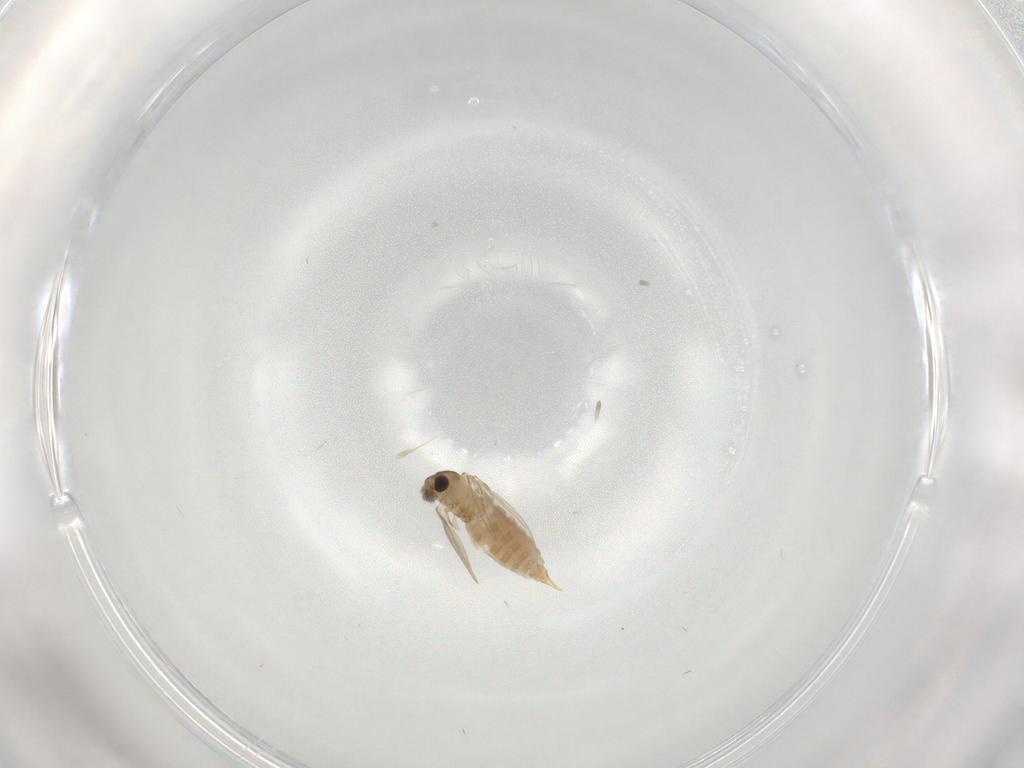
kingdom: Animalia
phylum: Arthropoda
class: Insecta
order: Diptera
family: Psychodidae
